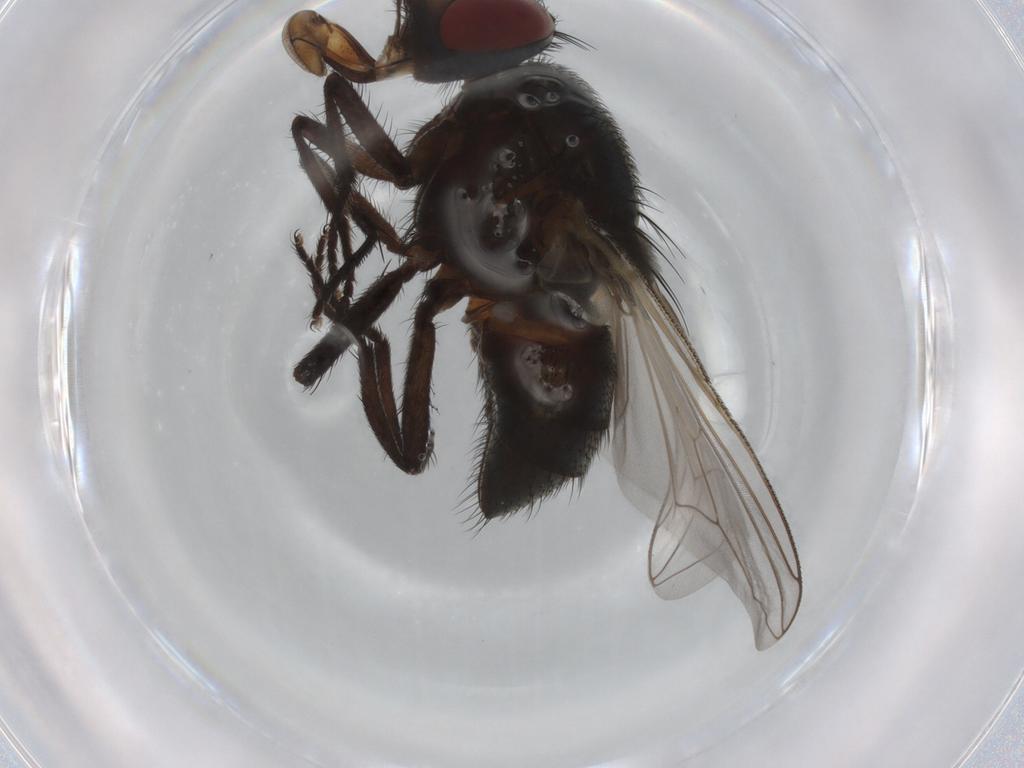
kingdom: Animalia
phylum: Arthropoda
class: Insecta
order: Diptera
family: Muscidae
